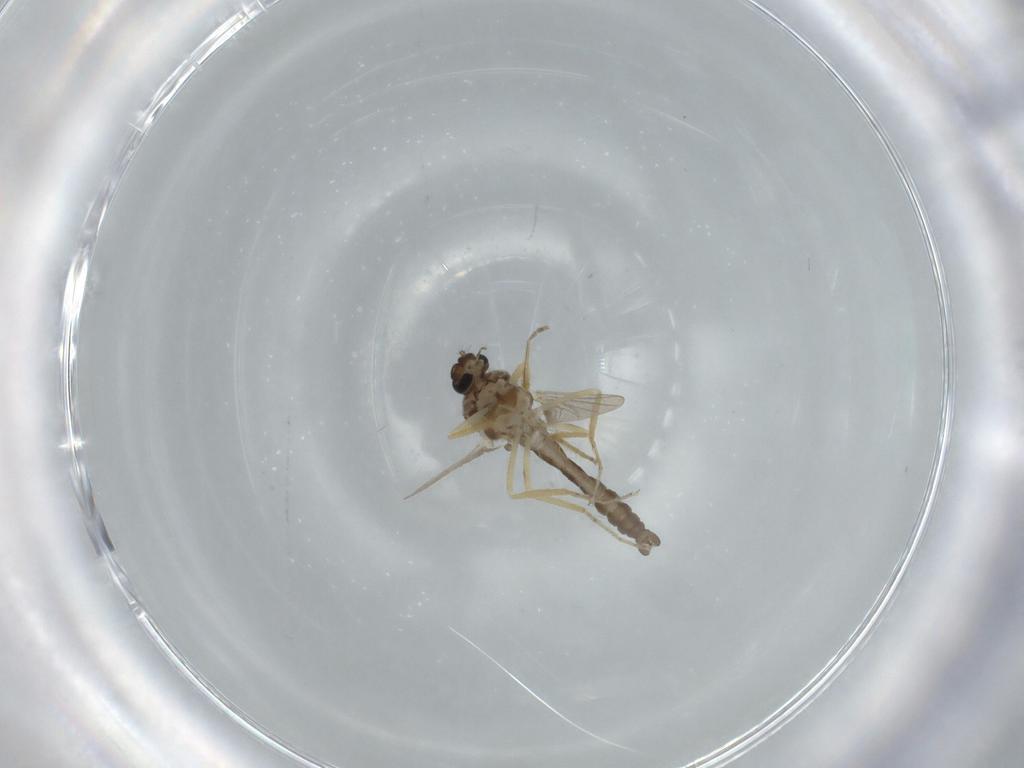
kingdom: Animalia
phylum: Arthropoda
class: Insecta
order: Diptera
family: Ceratopogonidae
